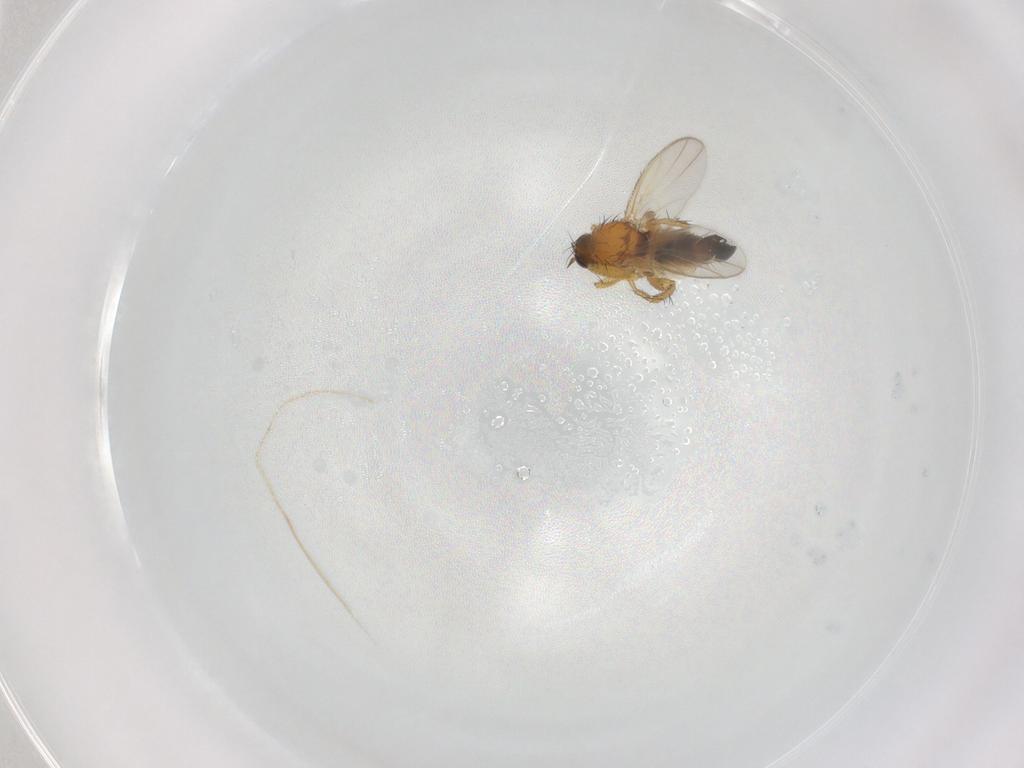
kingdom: Animalia
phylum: Arthropoda
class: Insecta
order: Diptera
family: Hybotidae
